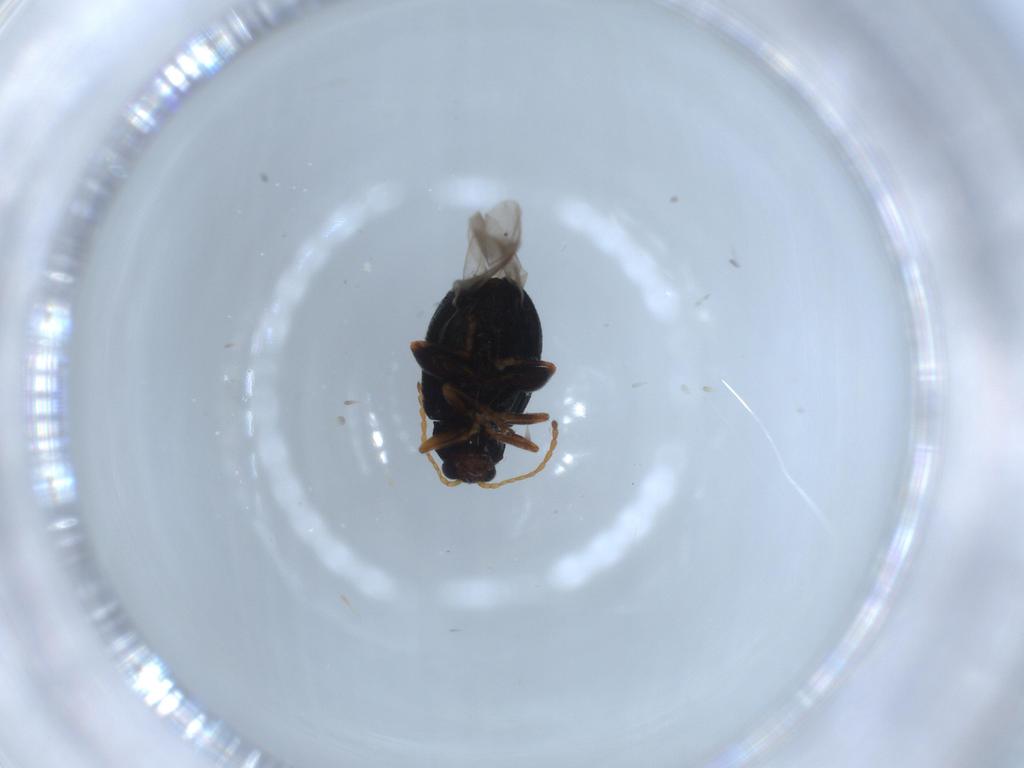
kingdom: Animalia
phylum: Arthropoda
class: Insecta
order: Coleoptera
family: Chrysomelidae
